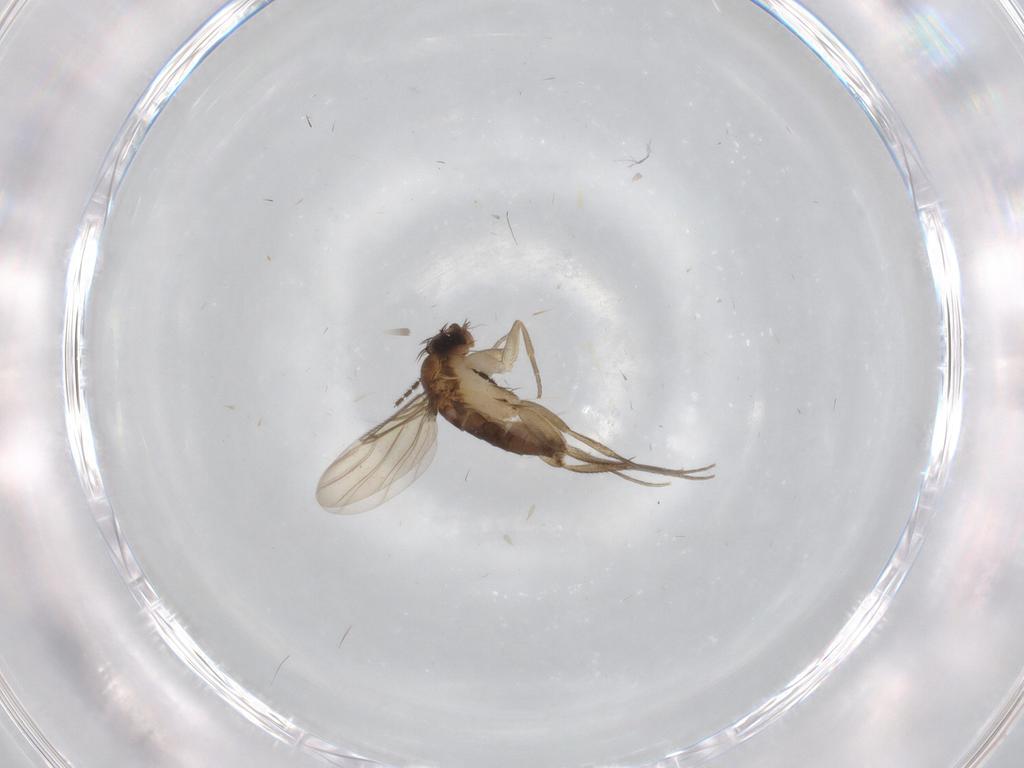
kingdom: Animalia
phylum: Arthropoda
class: Insecta
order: Diptera
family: Phoridae
